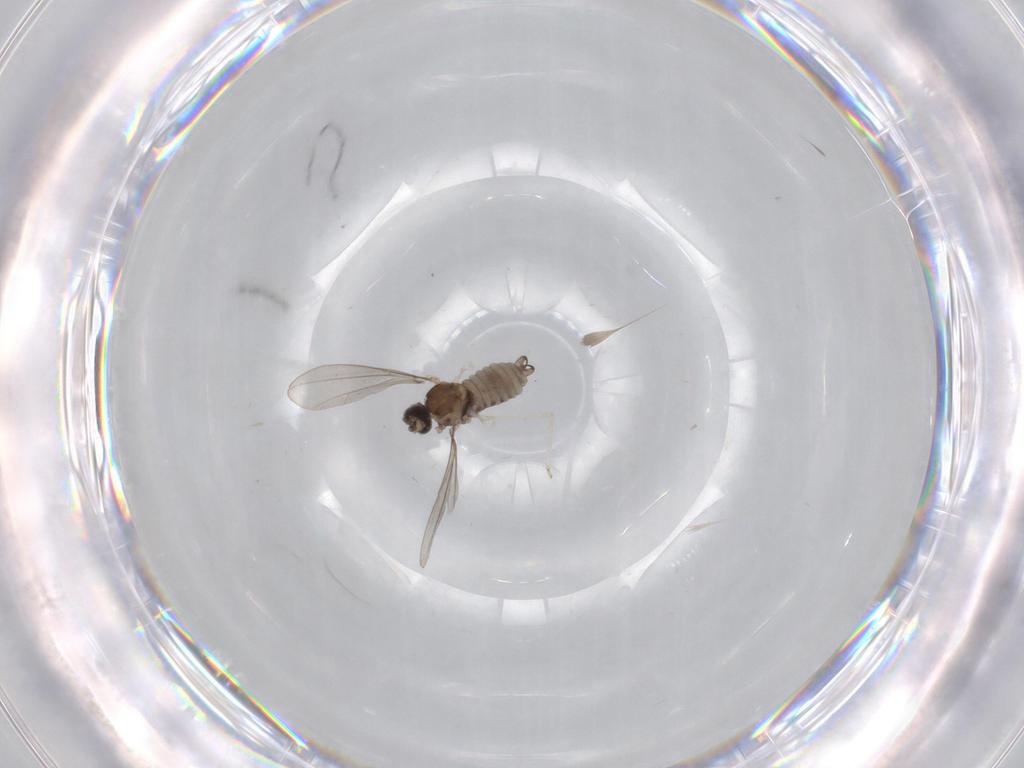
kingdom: Animalia
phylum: Arthropoda
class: Insecta
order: Diptera
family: Cecidomyiidae
